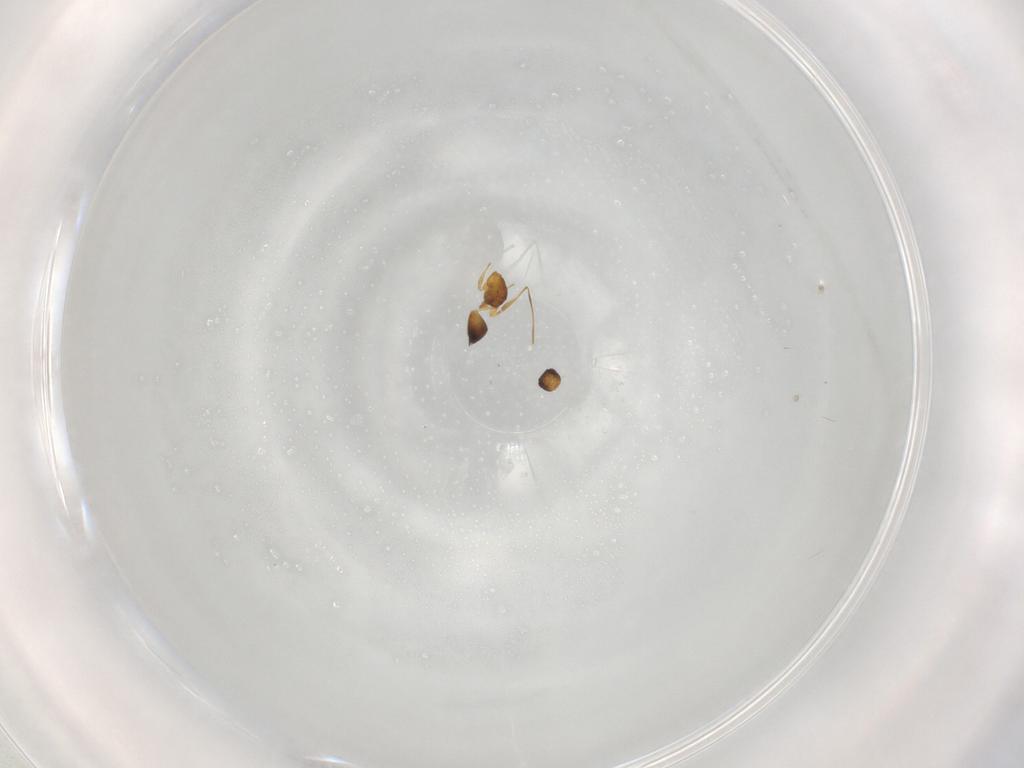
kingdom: Animalia
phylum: Arthropoda
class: Insecta
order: Hymenoptera
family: Mymaridae
